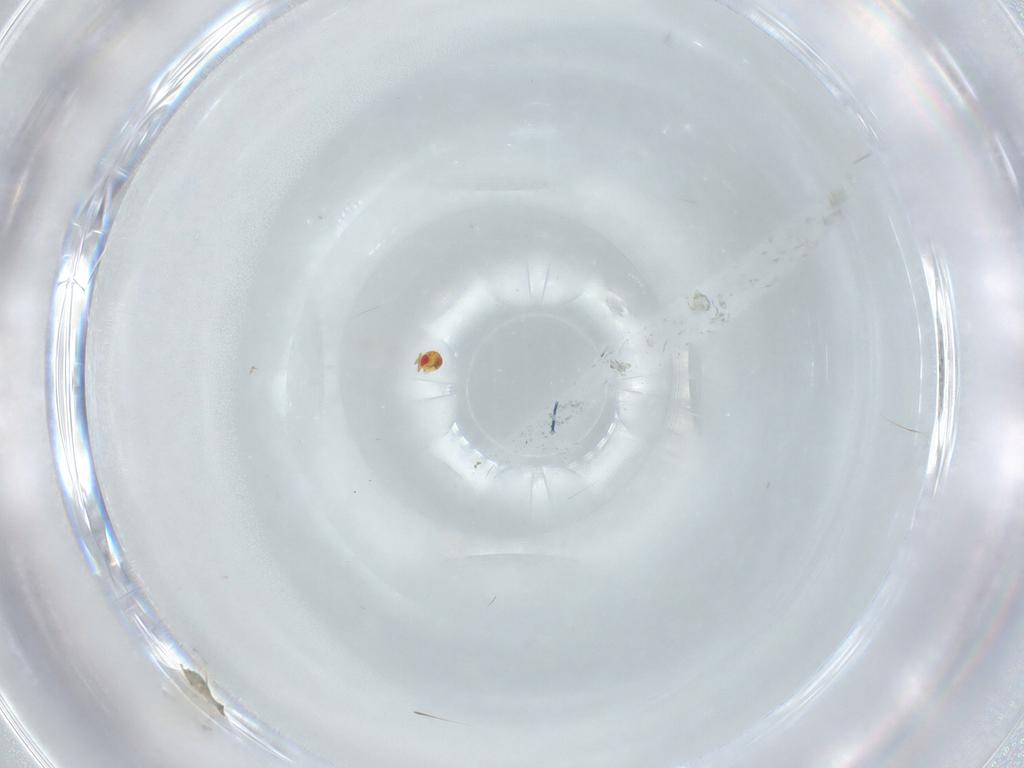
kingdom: Animalia
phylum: Arthropoda
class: Insecta
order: Hymenoptera
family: Trichogrammatidae
